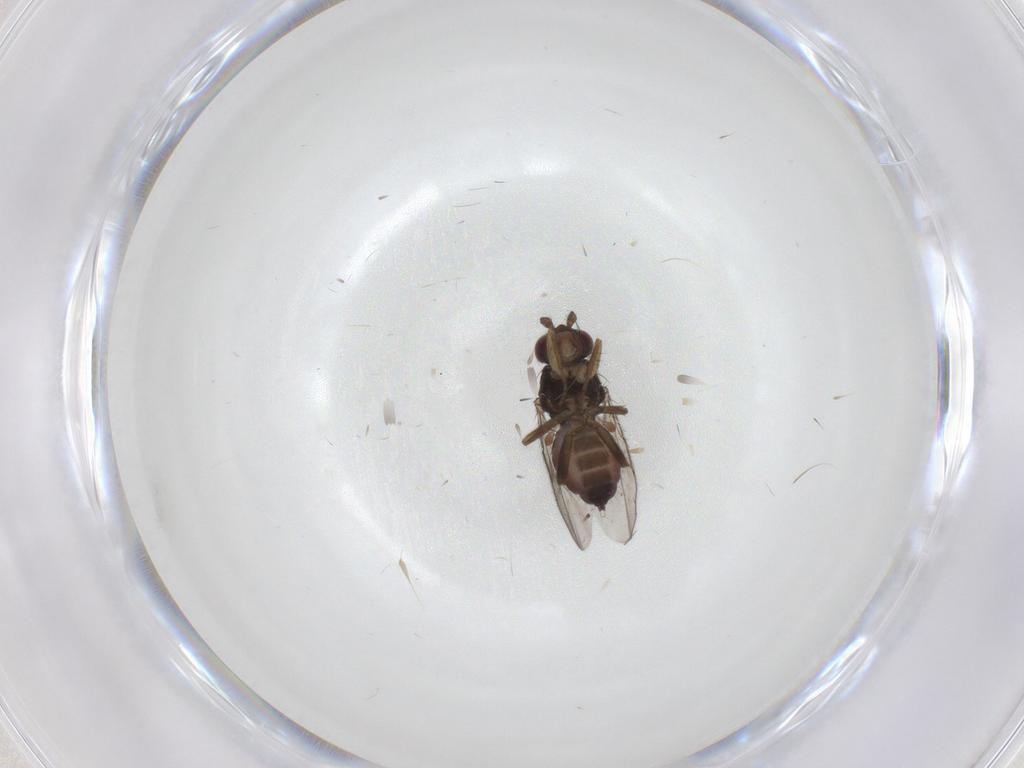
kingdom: Animalia
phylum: Arthropoda
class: Insecta
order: Diptera
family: Sphaeroceridae
